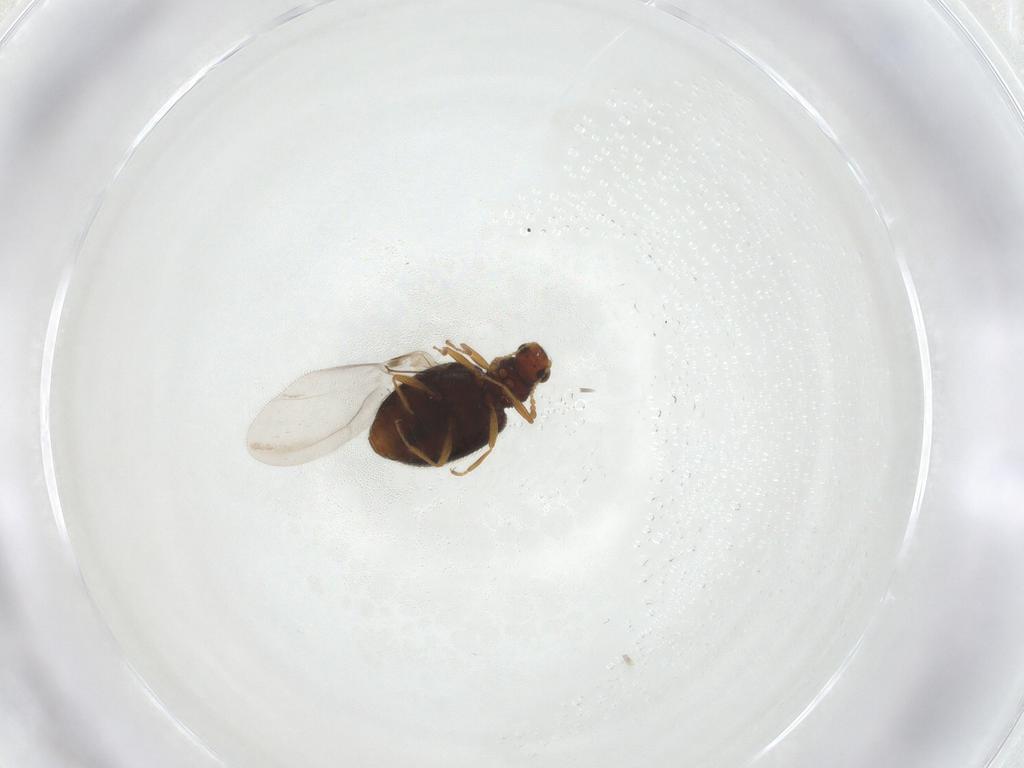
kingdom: Animalia
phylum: Arthropoda
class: Insecta
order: Coleoptera
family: Latridiidae
